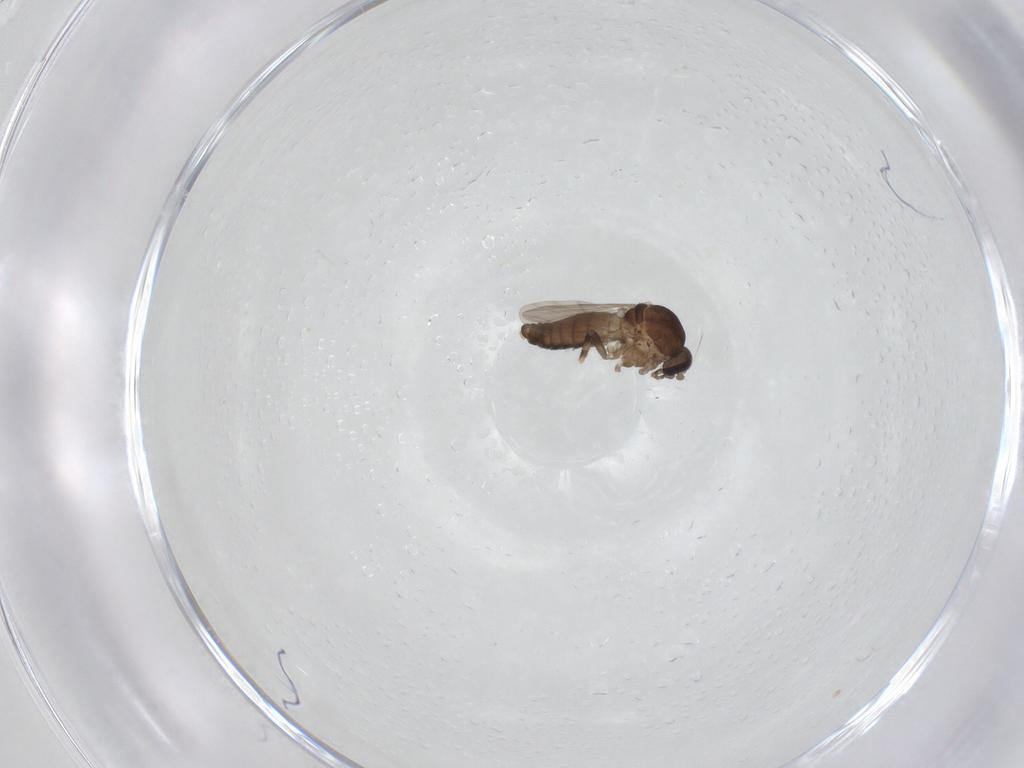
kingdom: Animalia
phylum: Arthropoda
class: Insecta
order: Diptera
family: Ceratopogonidae
